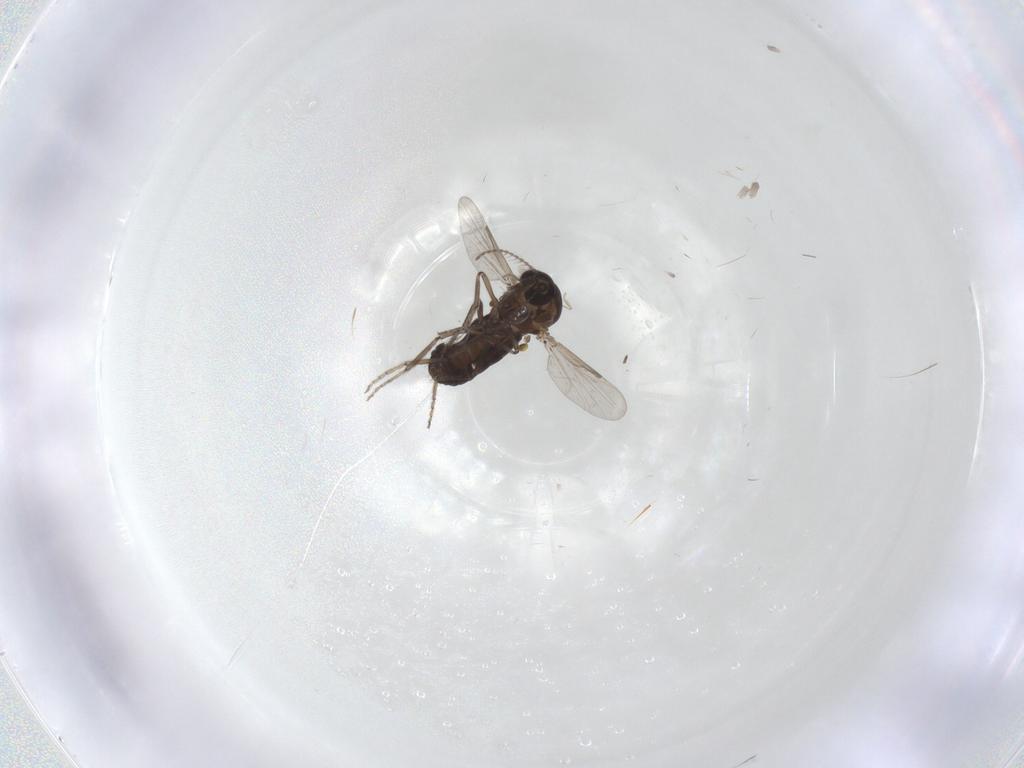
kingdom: Animalia
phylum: Arthropoda
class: Insecta
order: Diptera
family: Ceratopogonidae
